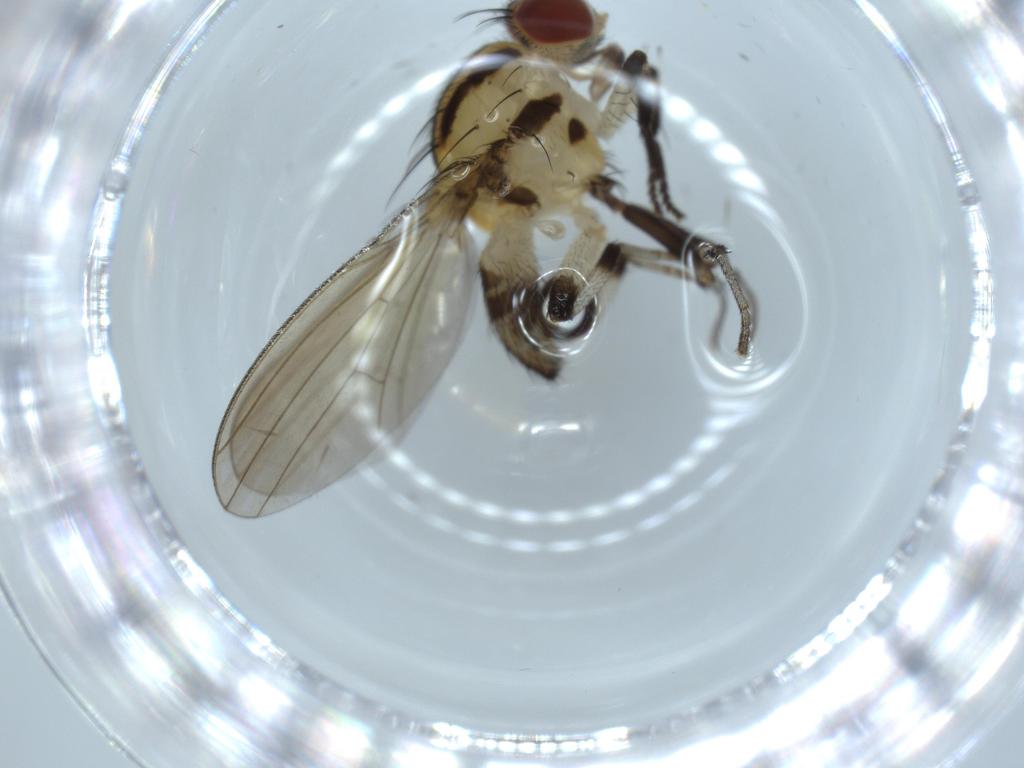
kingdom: Animalia
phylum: Arthropoda
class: Insecta
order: Diptera
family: Lauxaniidae
